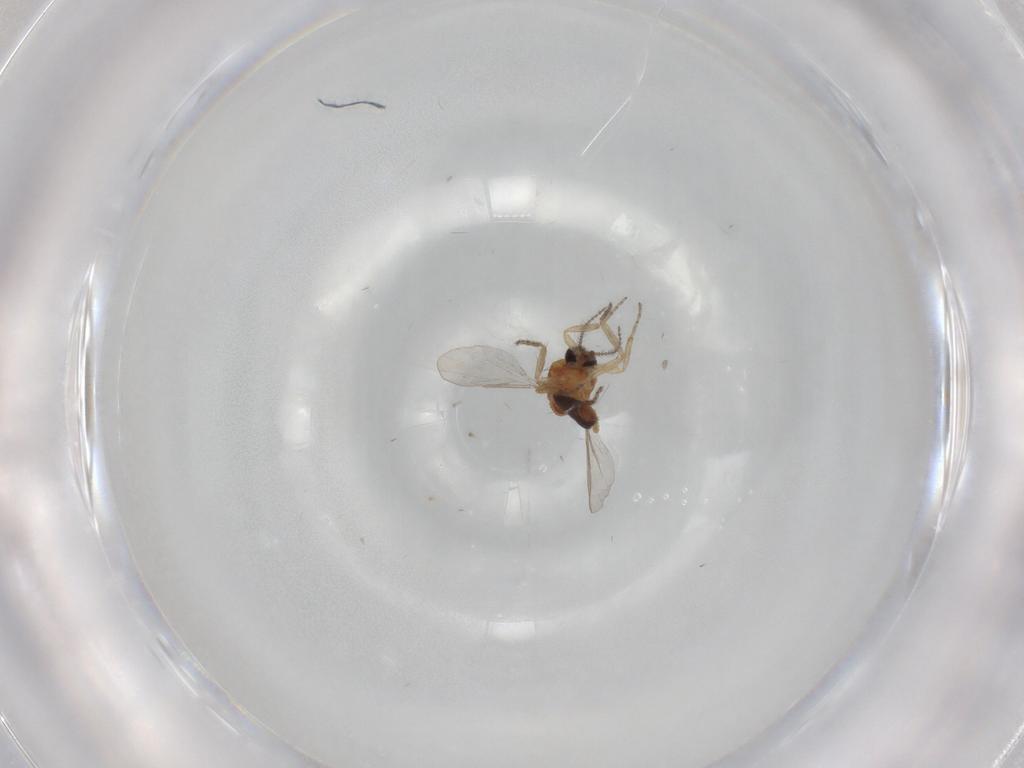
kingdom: Animalia
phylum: Arthropoda
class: Insecta
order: Diptera
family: Ceratopogonidae
